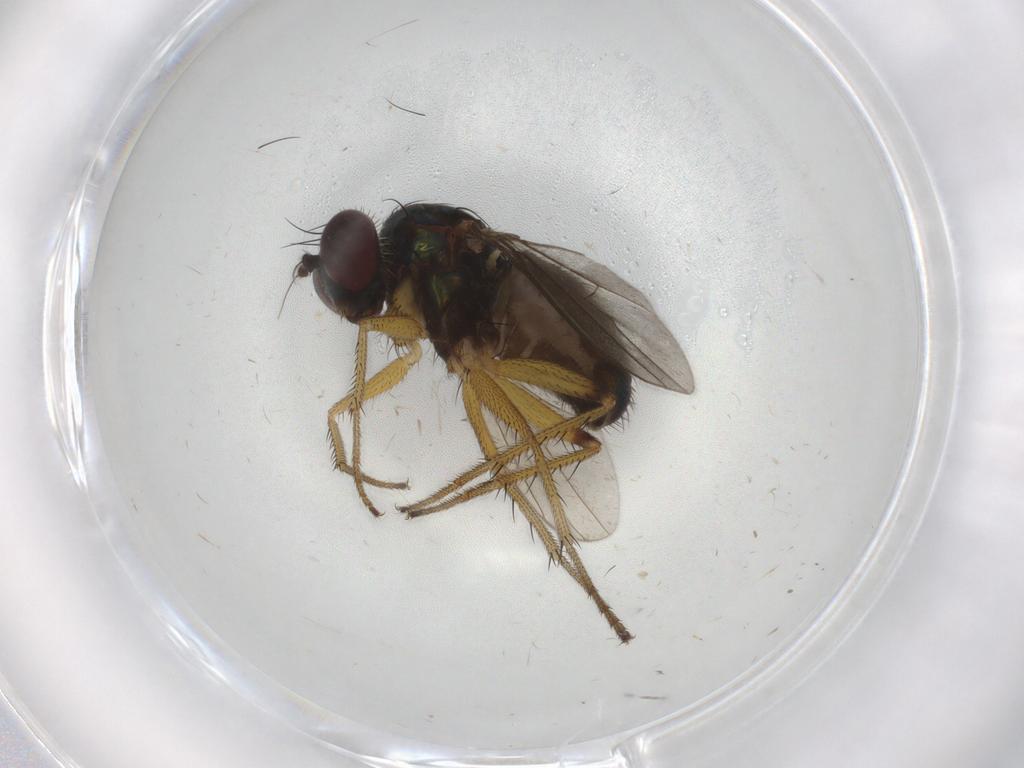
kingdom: Animalia
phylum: Arthropoda
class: Insecta
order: Diptera
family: Dolichopodidae
